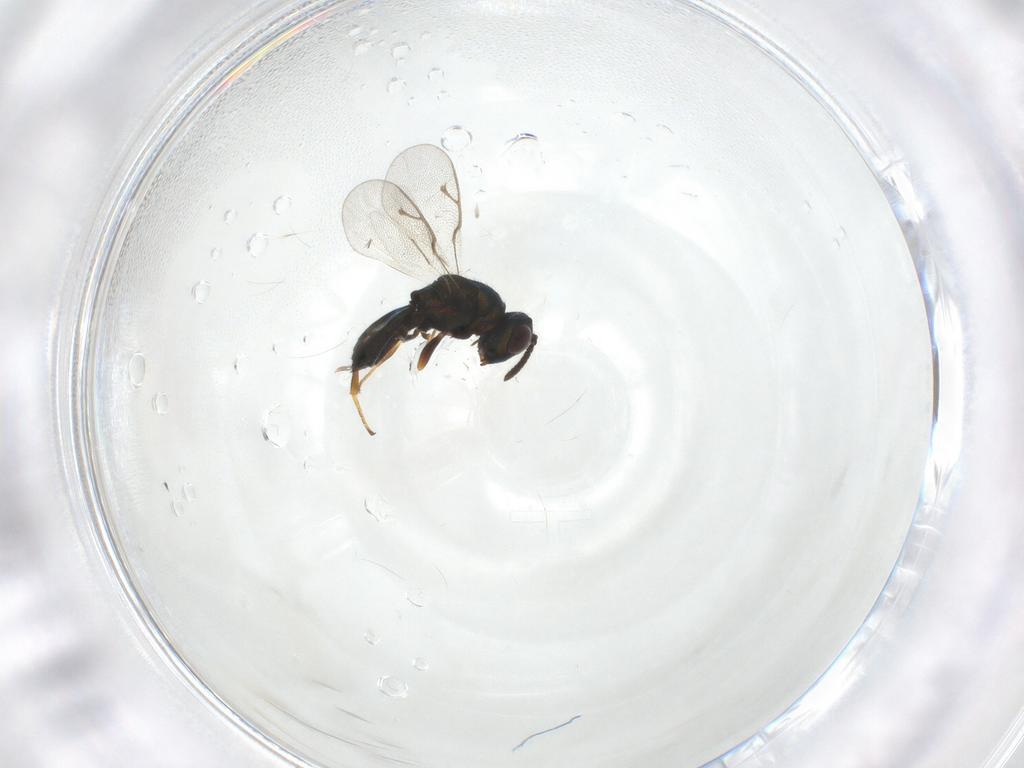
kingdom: Animalia
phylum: Arthropoda
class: Insecta
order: Hymenoptera
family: Pteromalidae
